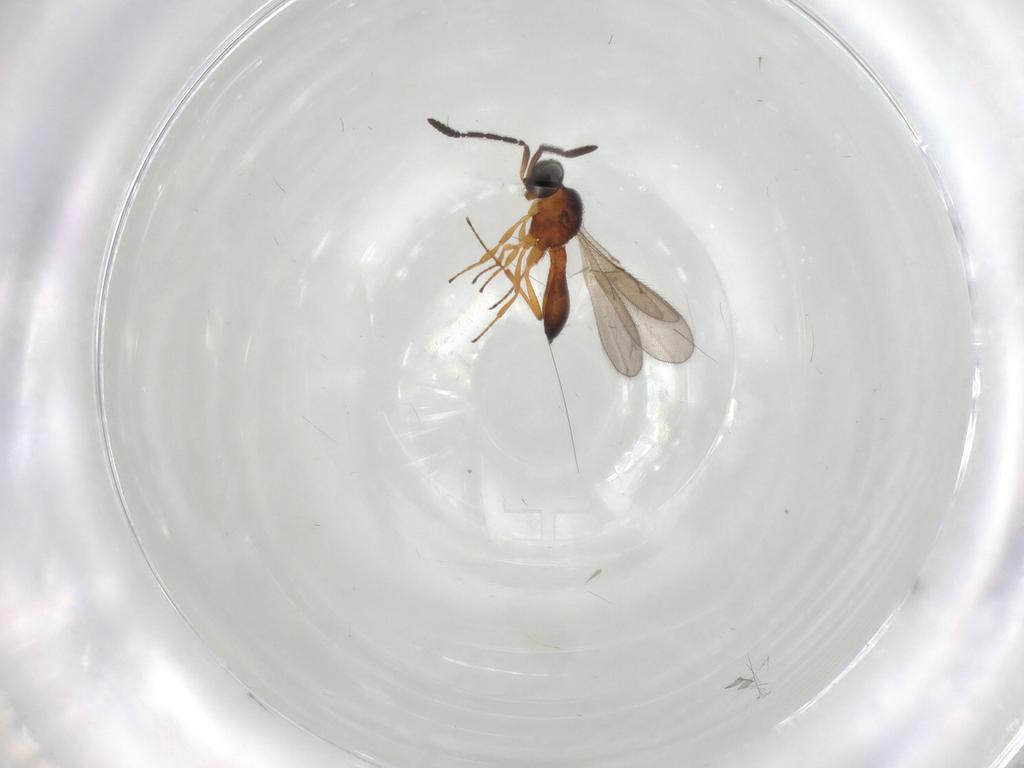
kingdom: Animalia
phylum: Arthropoda
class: Insecta
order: Hymenoptera
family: Scelionidae
